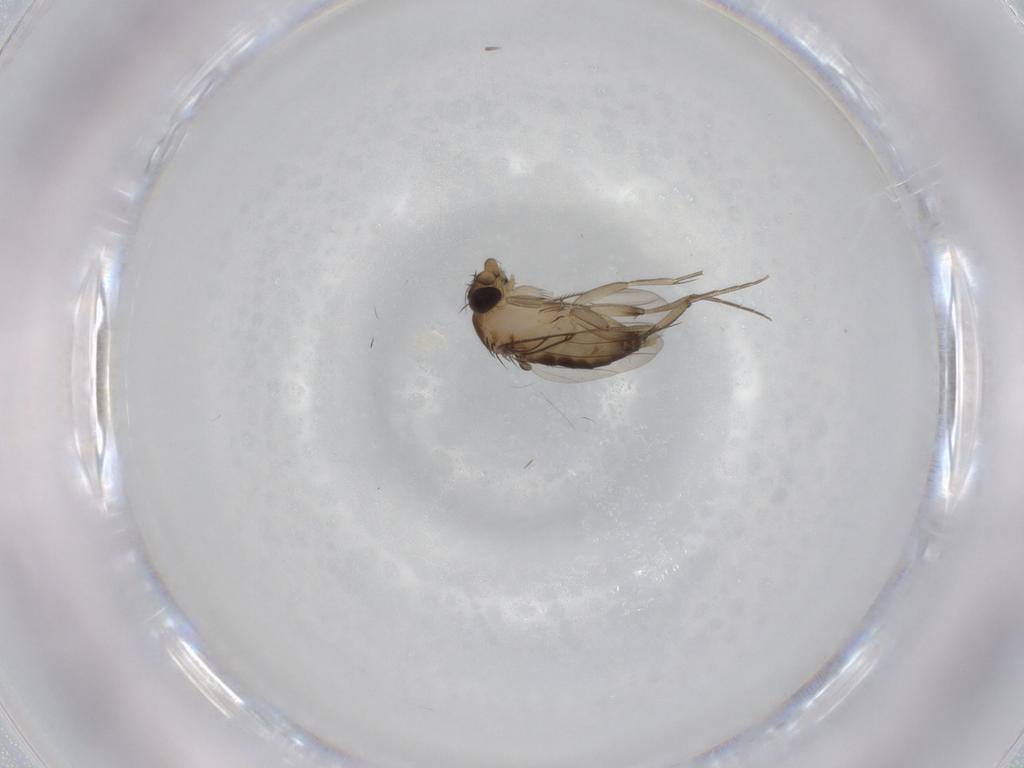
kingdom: Animalia
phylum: Arthropoda
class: Insecta
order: Diptera
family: Phoridae
